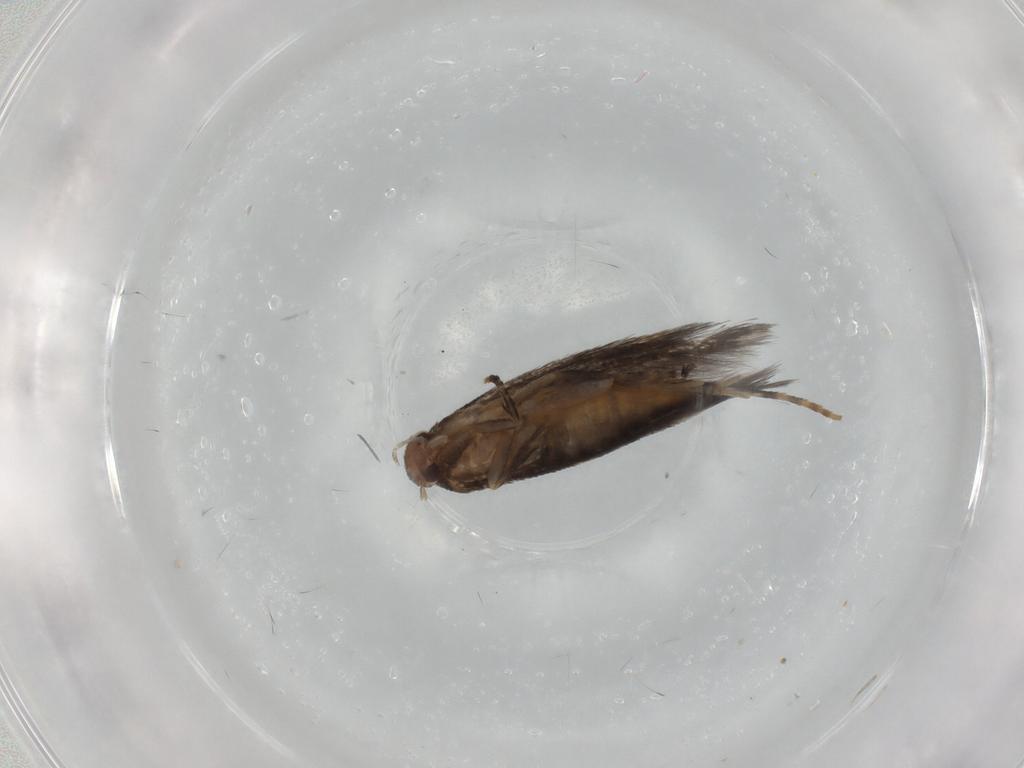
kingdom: Animalia
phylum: Arthropoda
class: Insecta
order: Lepidoptera
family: Elachistidae
